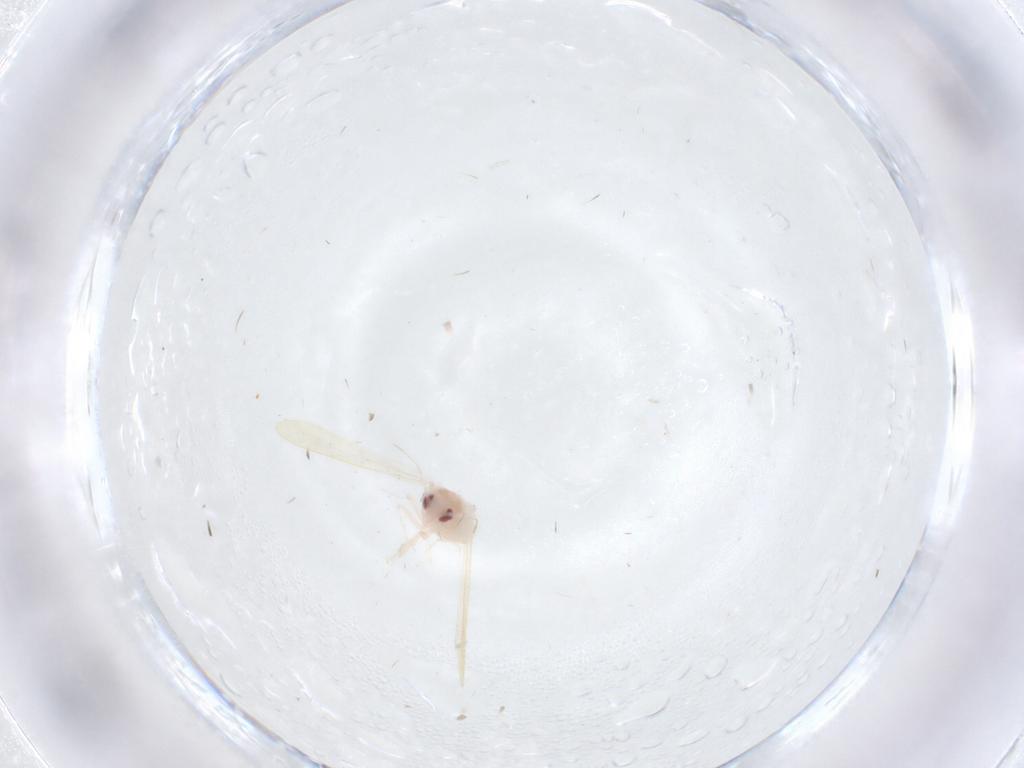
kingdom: Animalia
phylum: Arthropoda
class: Insecta
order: Hemiptera
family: Aleyrodidae
